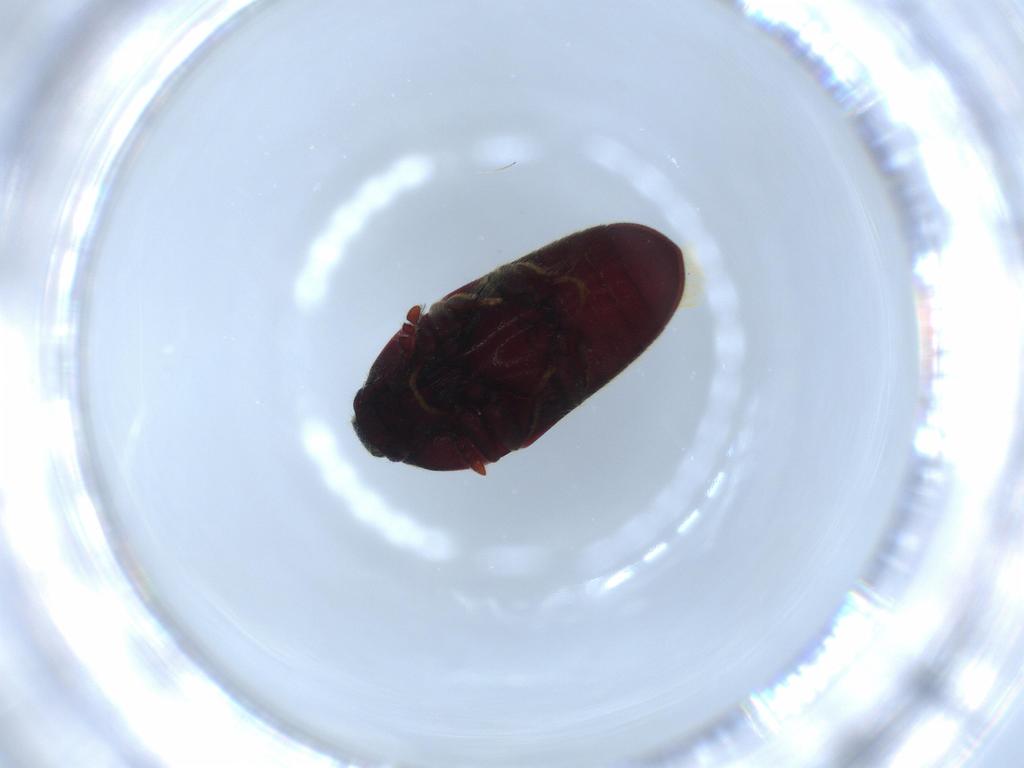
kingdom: Animalia
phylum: Arthropoda
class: Insecta
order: Coleoptera
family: Throscidae
